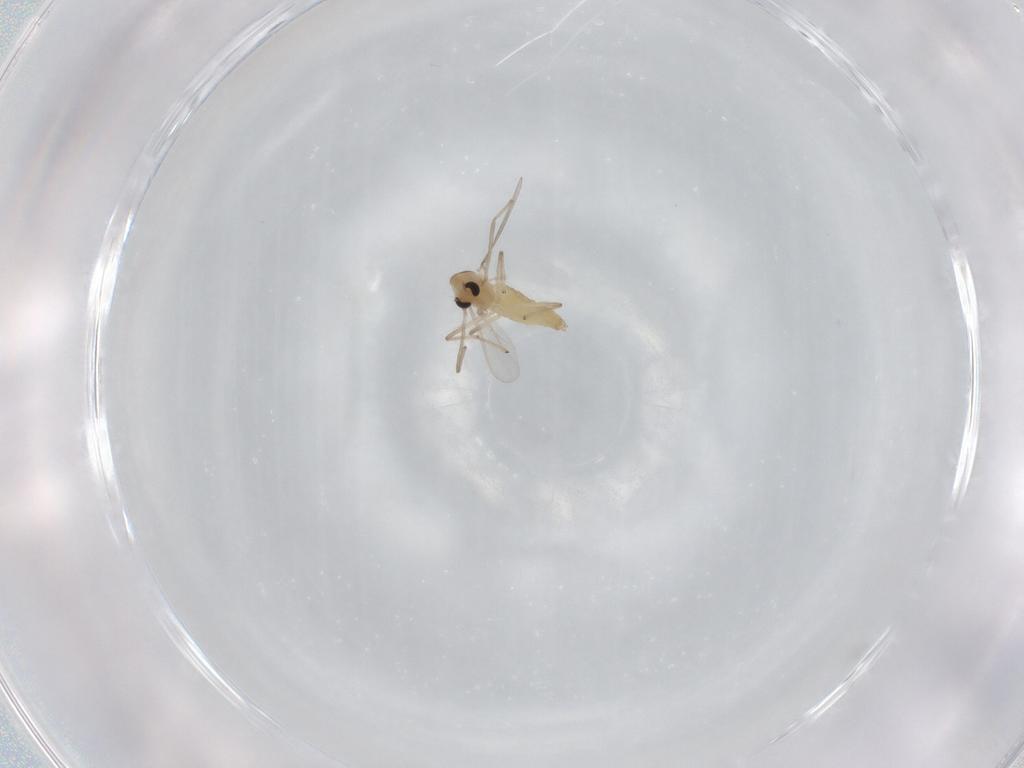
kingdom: Animalia
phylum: Arthropoda
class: Insecta
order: Diptera
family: Chironomidae
